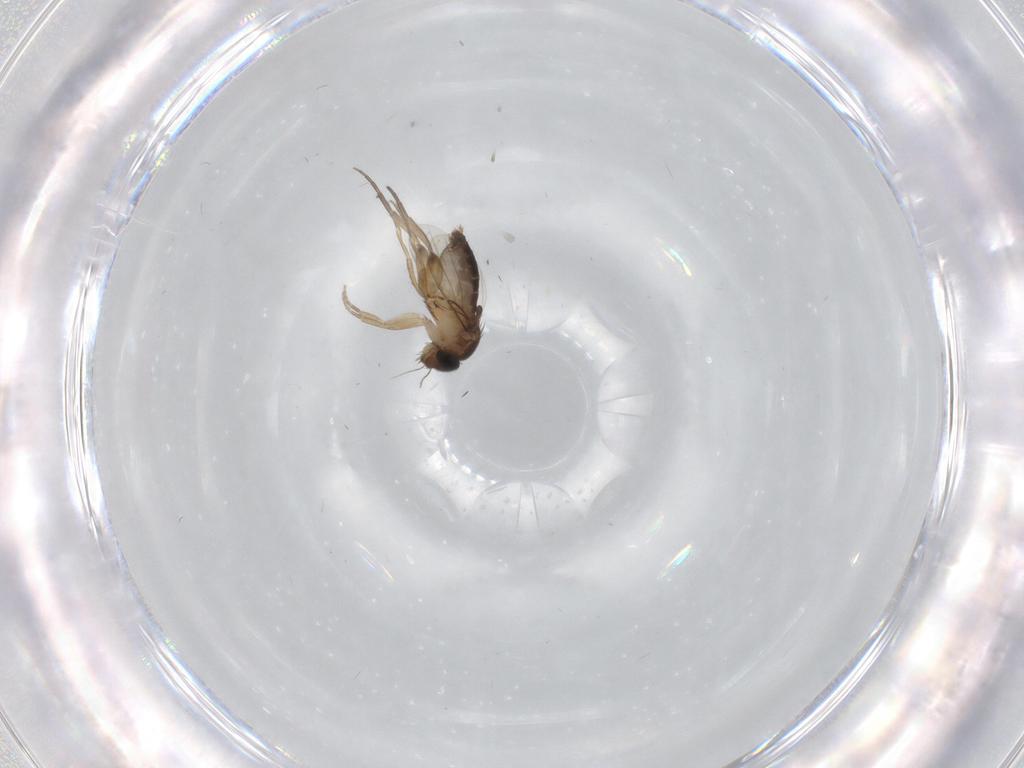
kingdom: Animalia
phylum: Arthropoda
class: Insecta
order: Diptera
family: Cecidomyiidae
